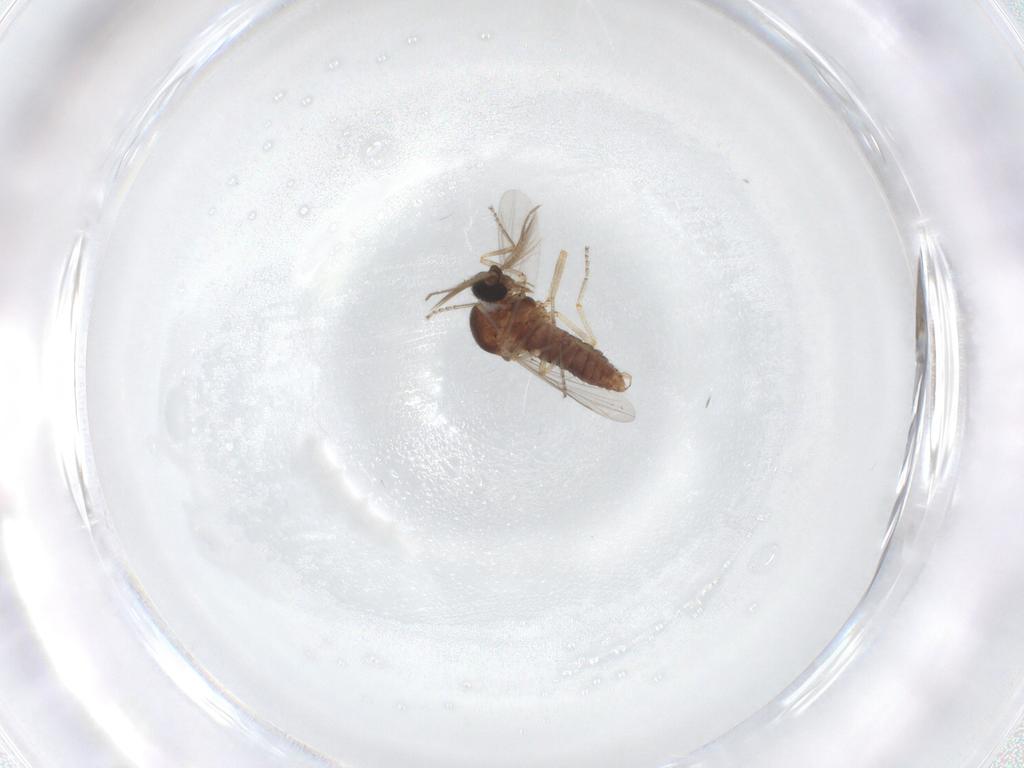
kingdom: Animalia
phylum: Arthropoda
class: Insecta
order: Diptera
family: Ceratopogonidae
